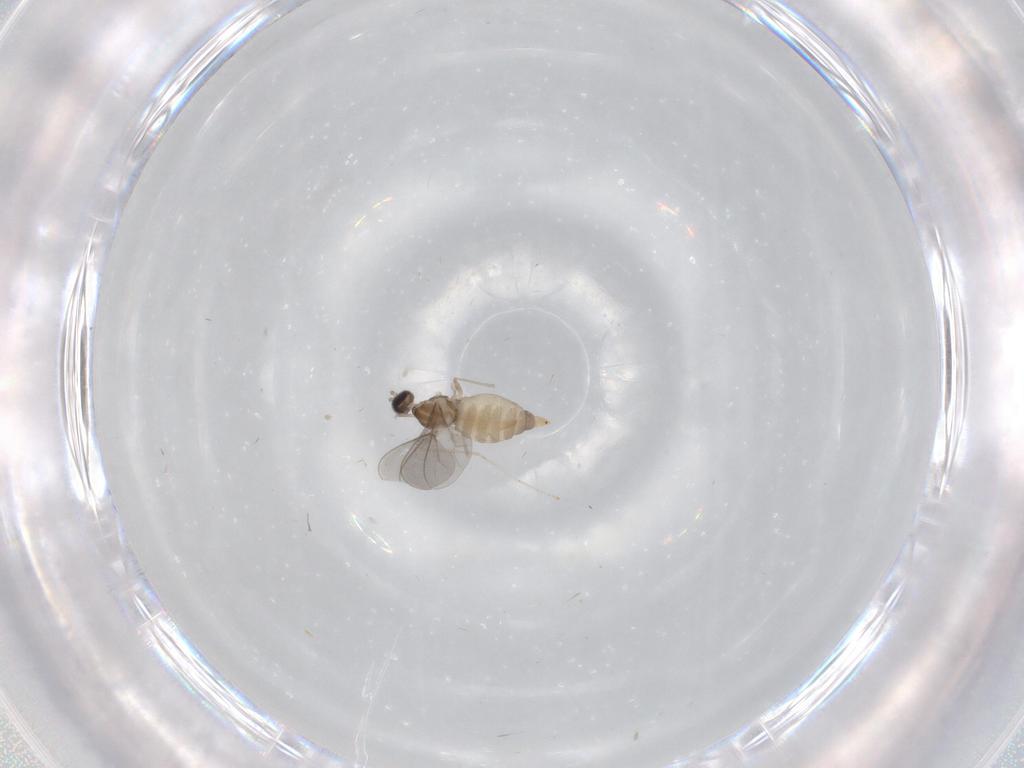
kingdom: Animalia
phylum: Arthropoda
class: Insecta
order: Diptera
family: Cecidomyiidae
